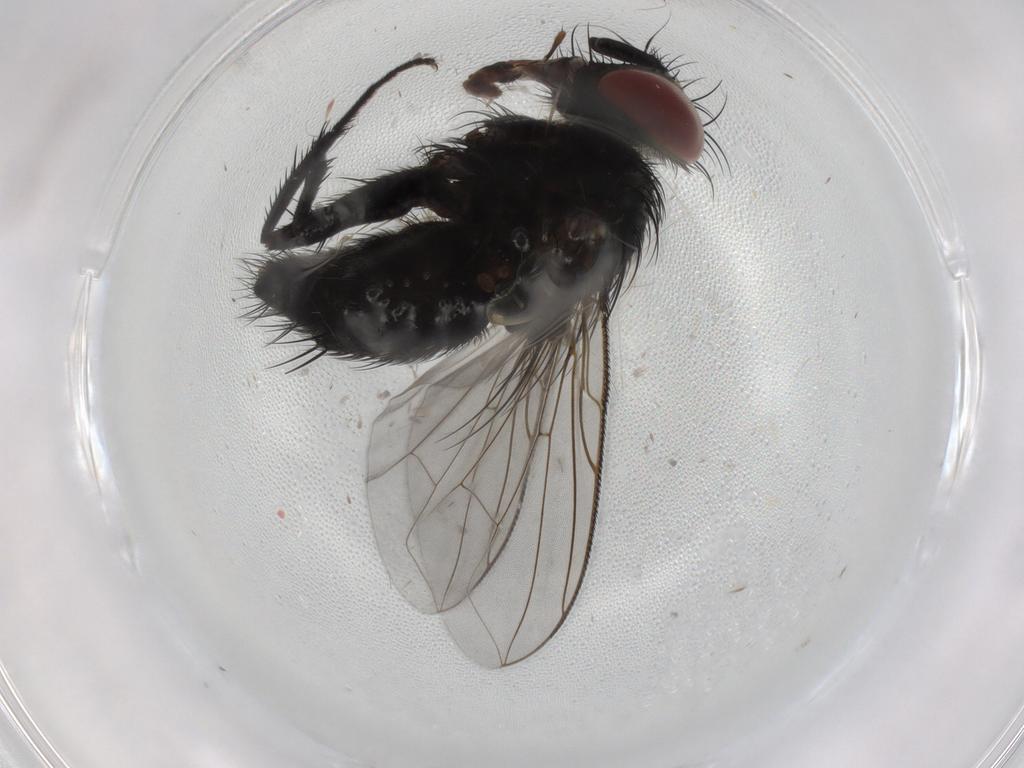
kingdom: Animalia
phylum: Arthropoda
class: Insecta
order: Diptera
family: Tachinidae
